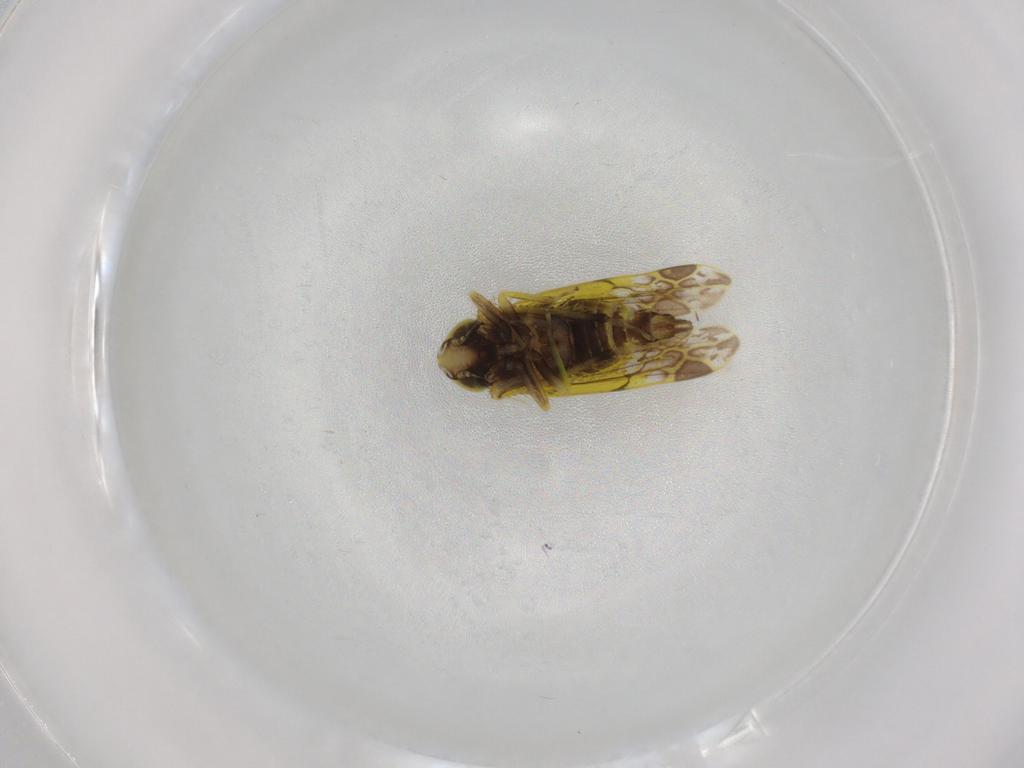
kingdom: Animalia
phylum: Arthropoda
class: Insecta
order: Hemiptera
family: Cicadellidae
